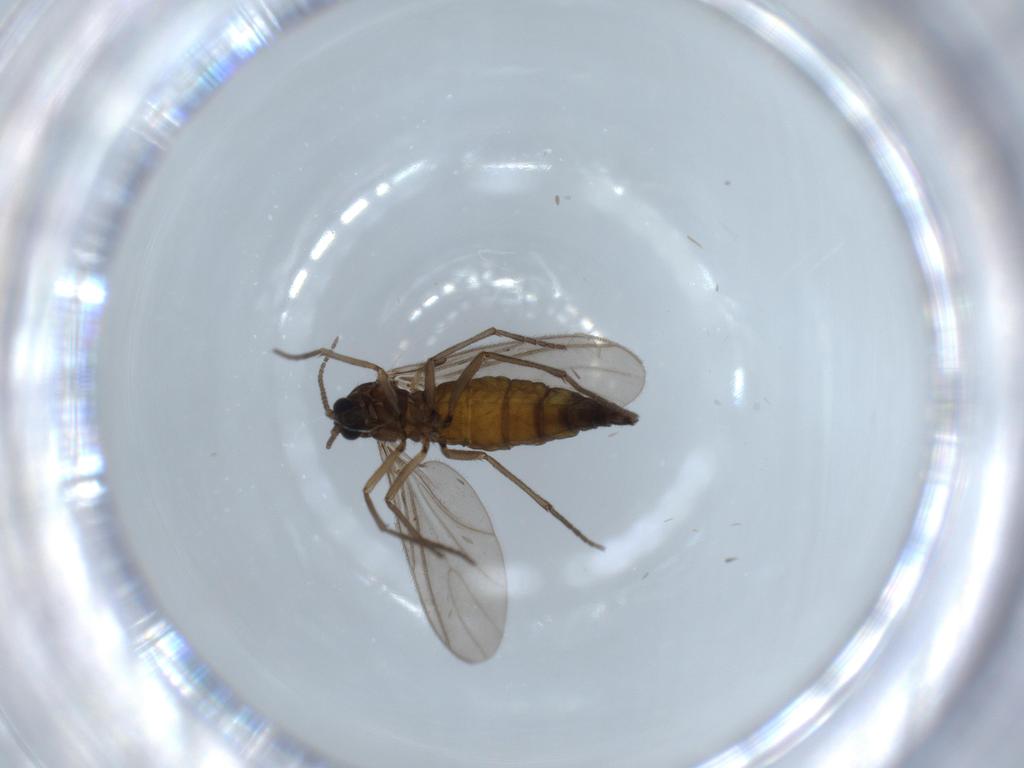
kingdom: Animalia
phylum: Arthropoda
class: Insecta
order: Diptera
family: Sciaridae
